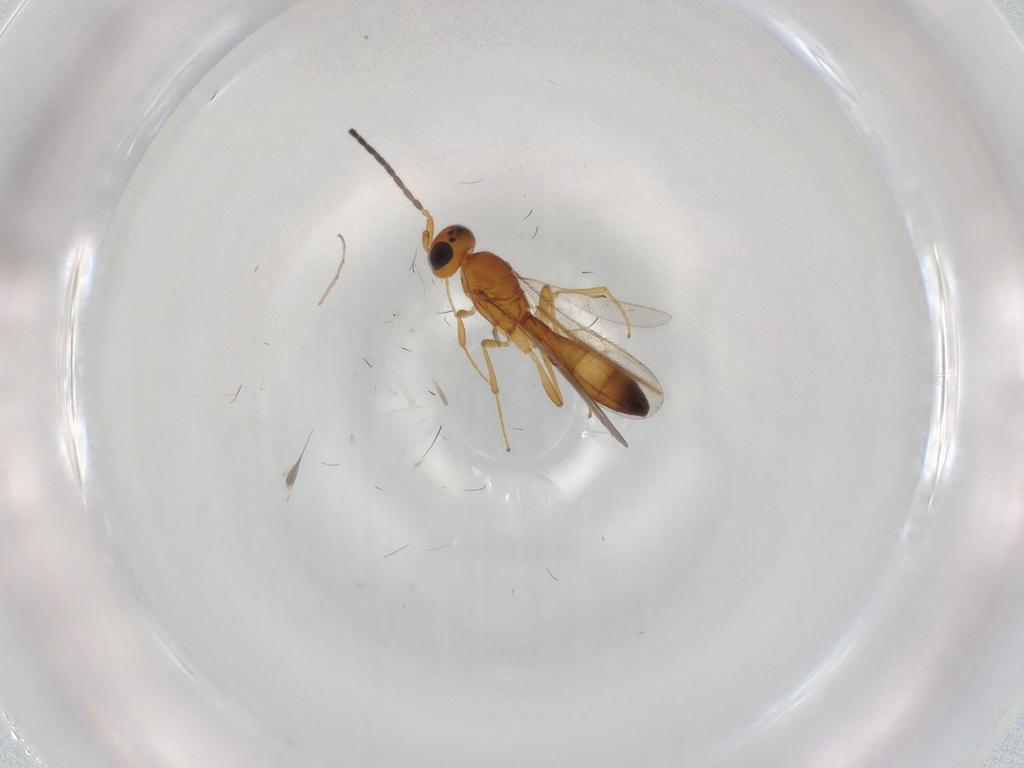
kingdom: Animalia
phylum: Arthropoda
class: Insecta
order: Hymenoptera
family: Scelionidae
